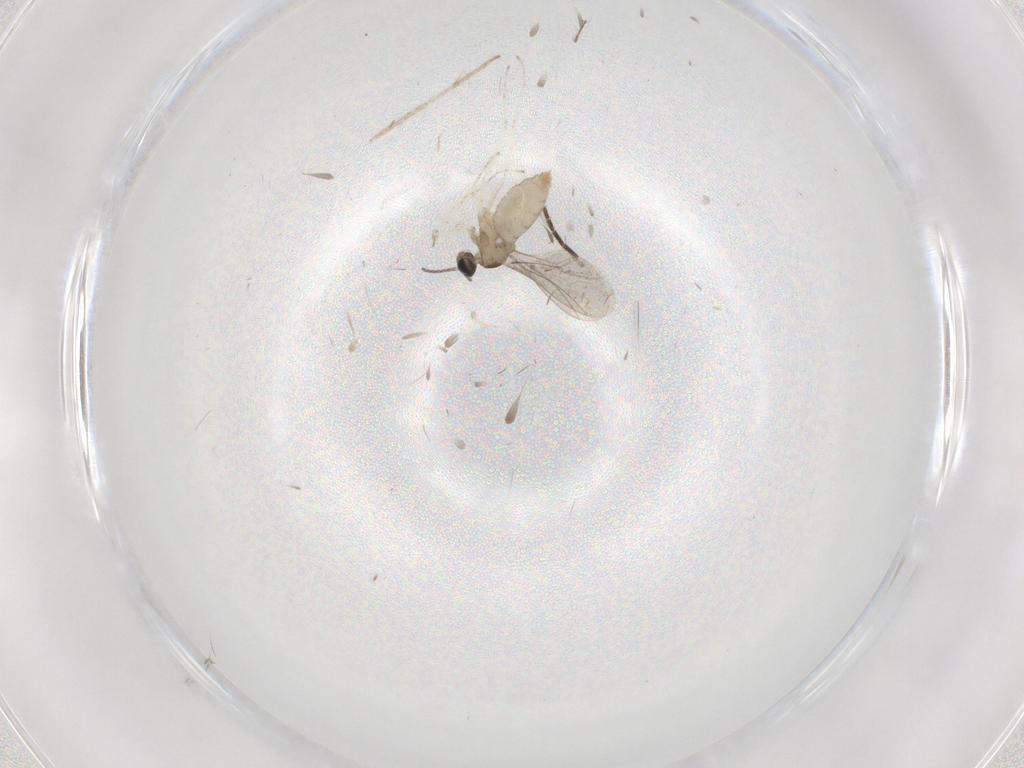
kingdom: Animalia
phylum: Arthropoda
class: Insecta
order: Diptera
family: Cecidomyiidae
